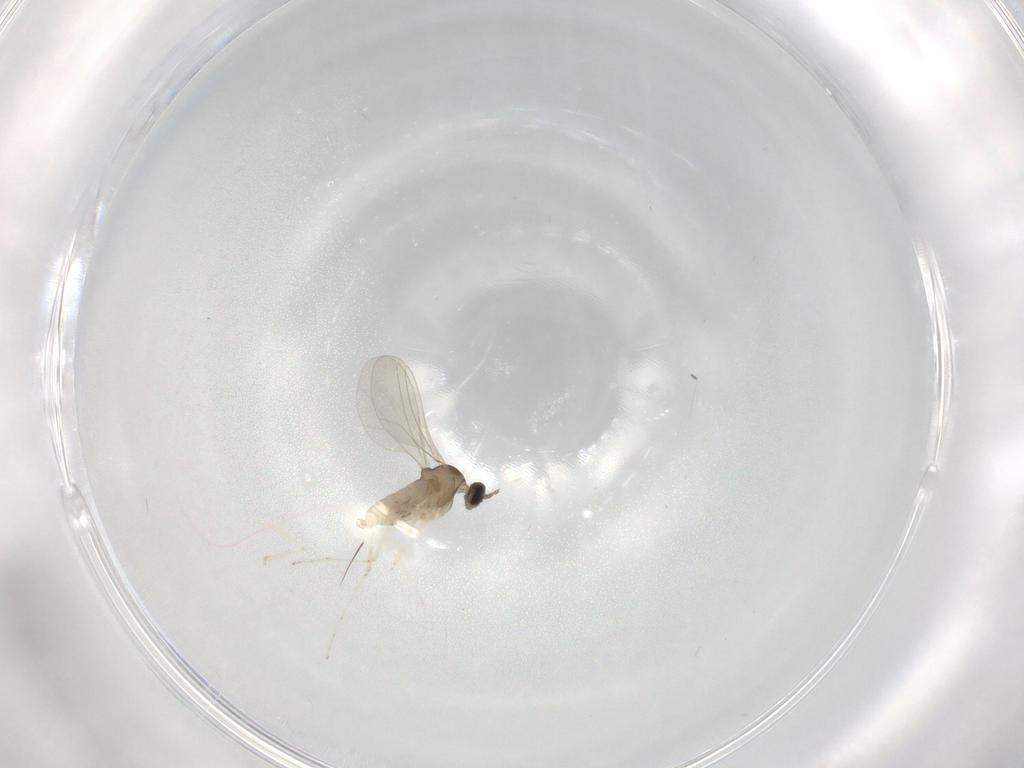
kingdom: Animalia
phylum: Arthropoda
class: Insecta
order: Diptera
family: Cecidomyiidae
